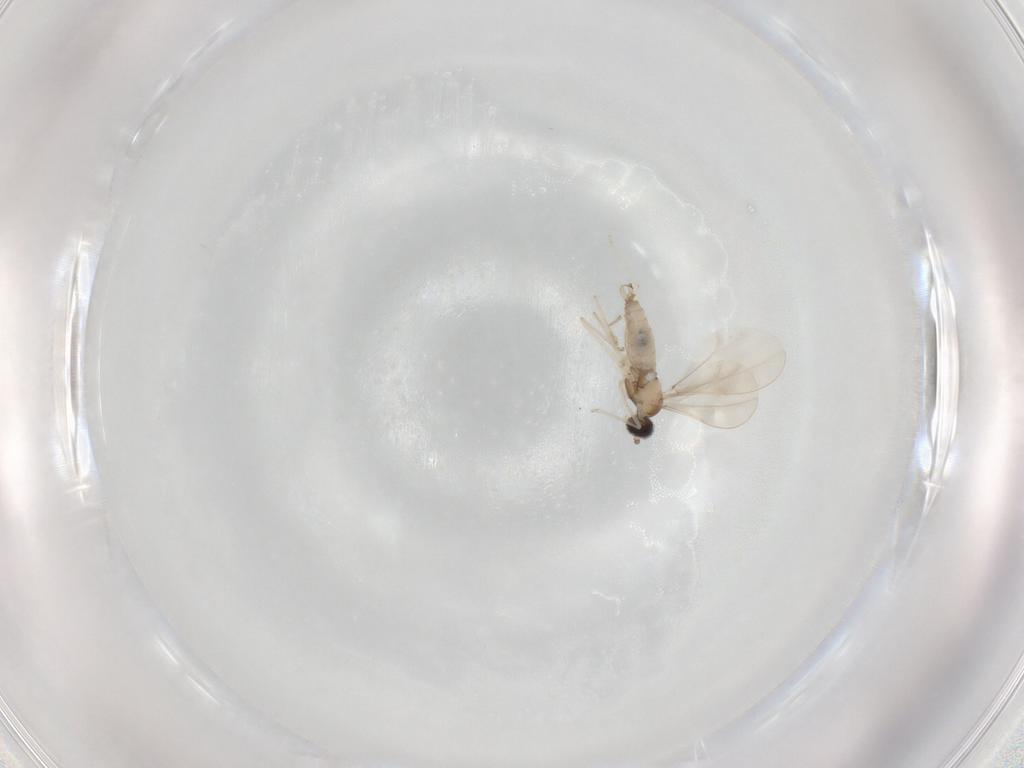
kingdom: Animalia
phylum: Arthropoda
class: Insecta
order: Diptera
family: Cecidomyiidae
